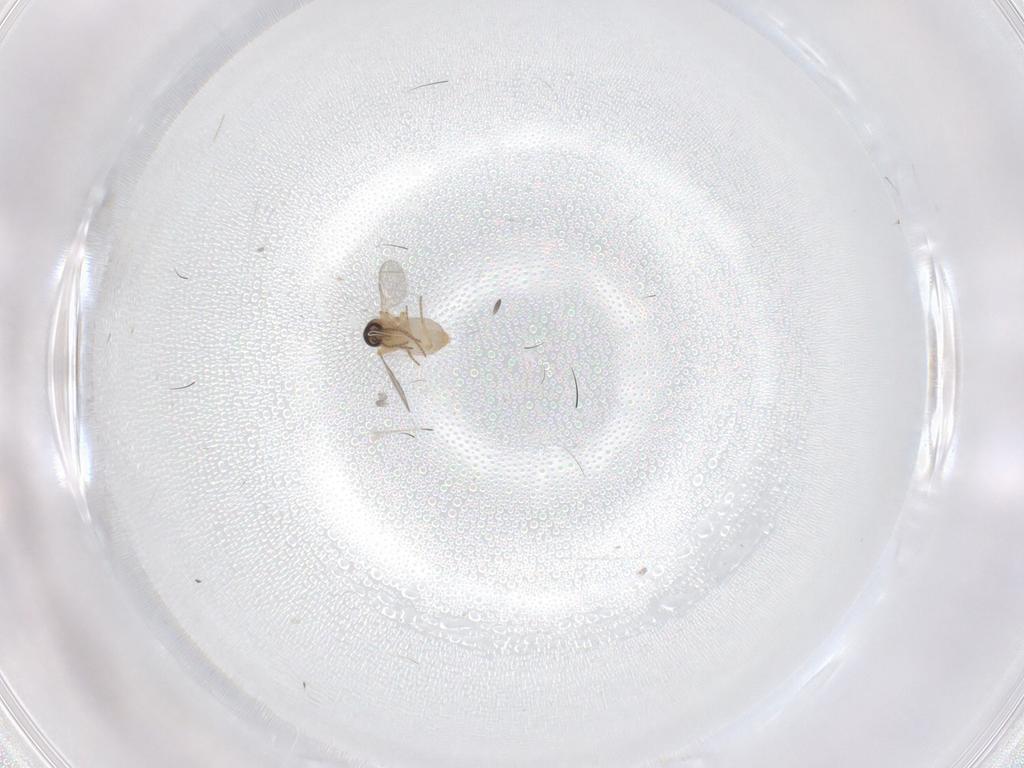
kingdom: Animalia
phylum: Arthropoda
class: Insecta
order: Diptera
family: Ceratopogonidae
